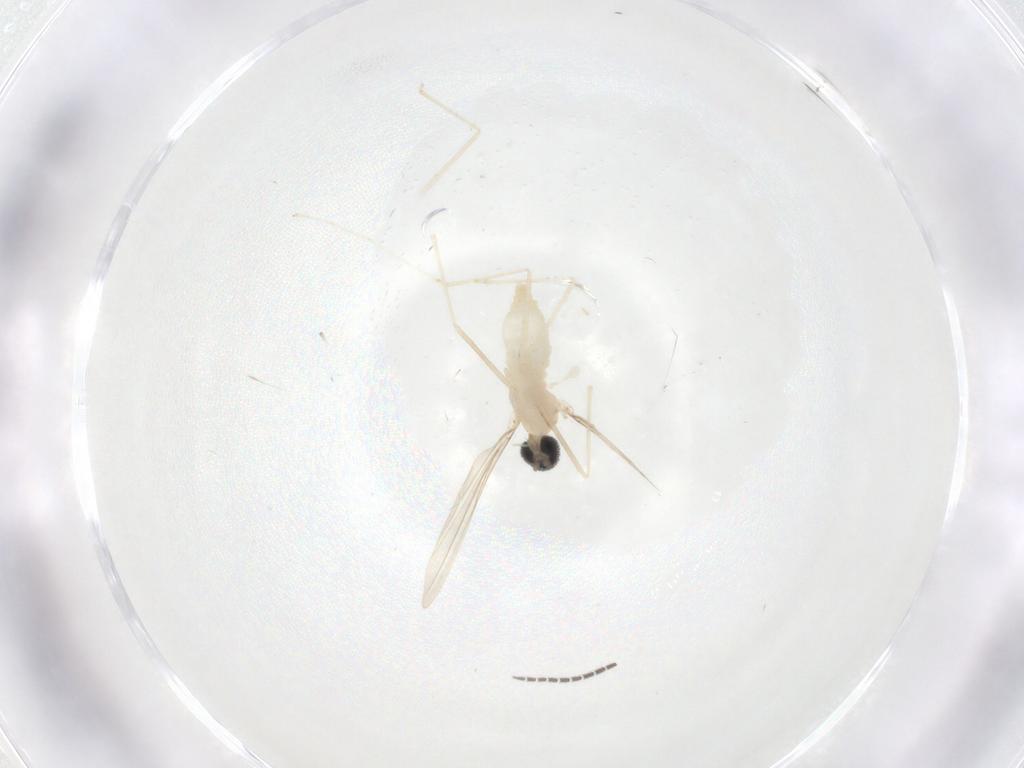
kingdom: Animalia
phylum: Arthropoda
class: Insecta
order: Diptera
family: Cecidomyiidae
